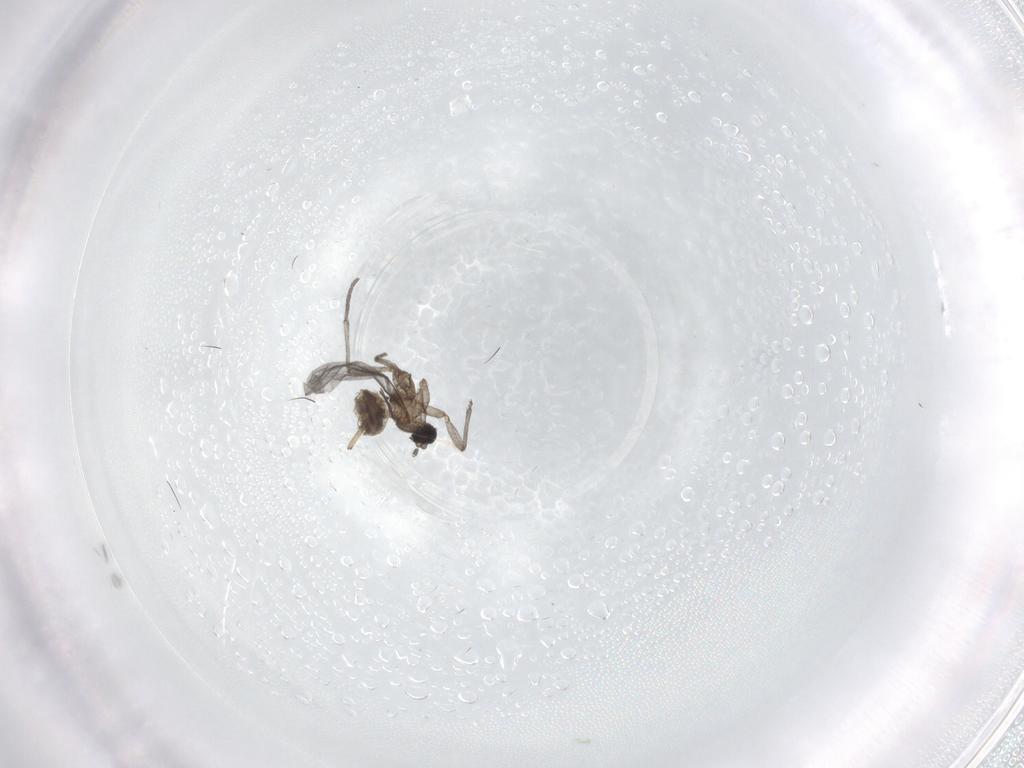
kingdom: Animalia
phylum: Arthropoda
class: Insecta
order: Diptera
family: Sciaridae
